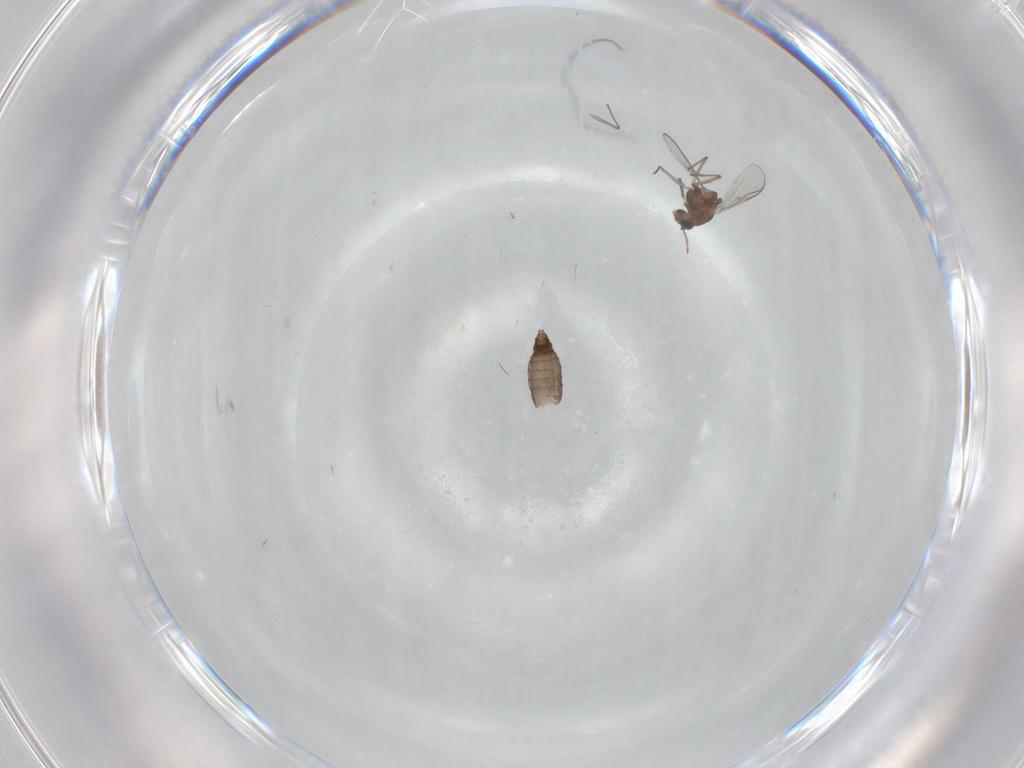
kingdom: Animalia
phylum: Arthropoda
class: Insecta
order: Diptera
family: Chironomidae
